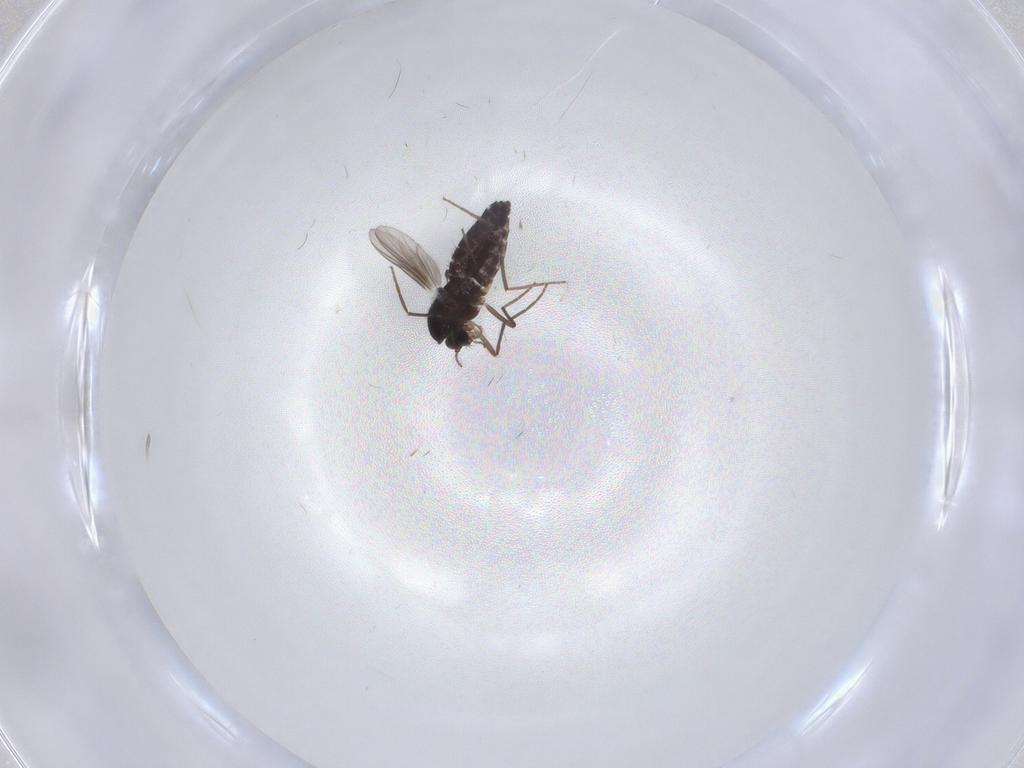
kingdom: Animalia
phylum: Arthropoda
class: Insecta
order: Diptera
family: Chironomidae
